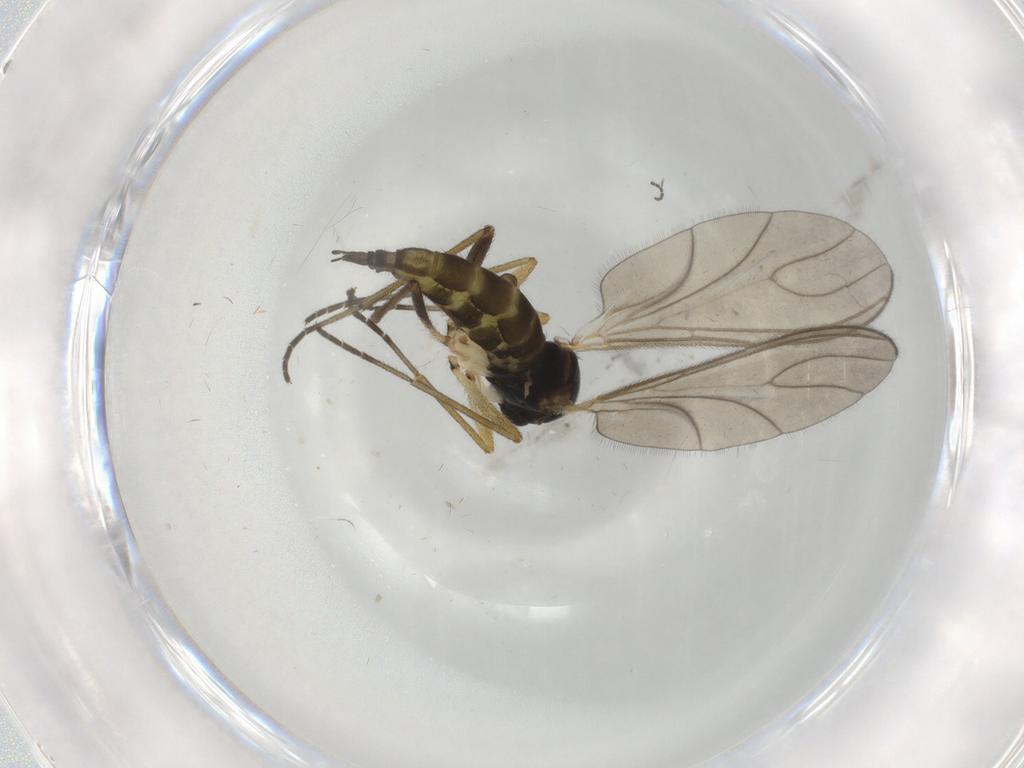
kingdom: Animalia
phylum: Arthropoda
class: Insecta
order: Diptera
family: Sciaridae
